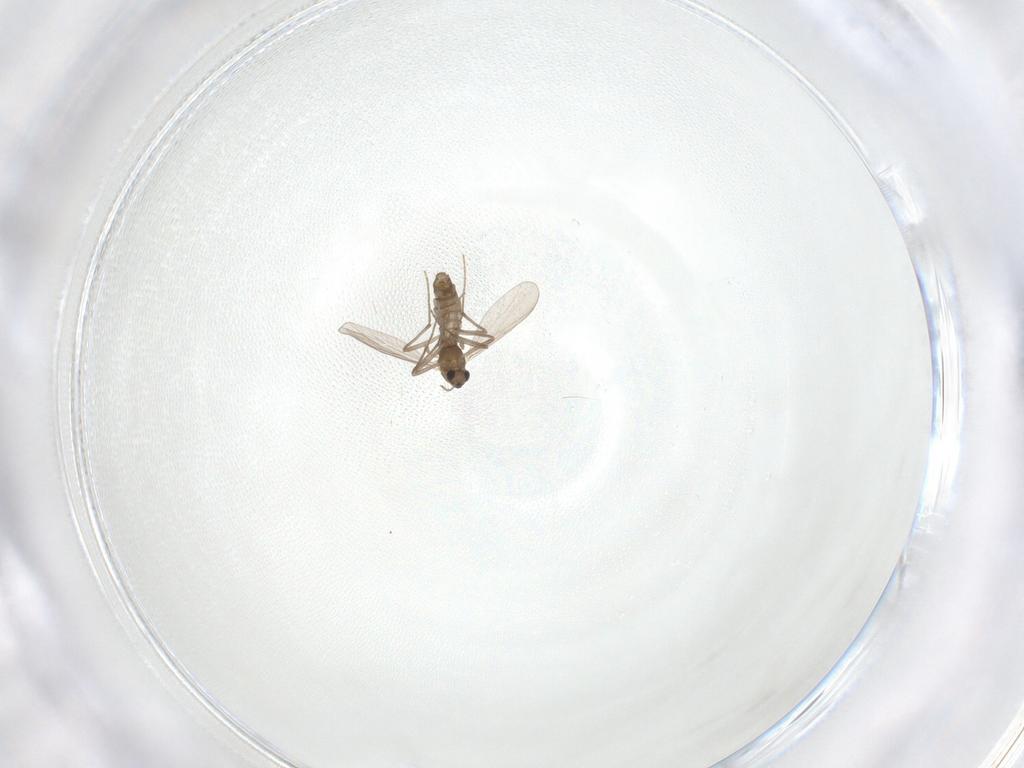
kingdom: Animalia
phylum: Arthropoda
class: Insecta
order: Diptera
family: Chironomidae
